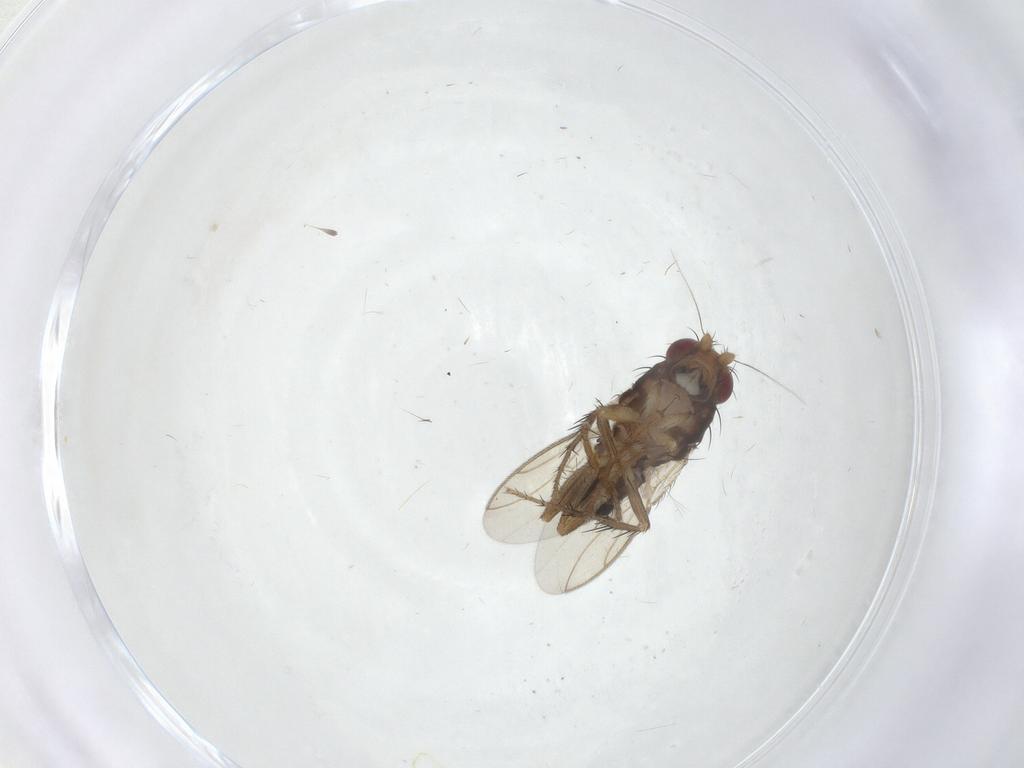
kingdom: Animalia
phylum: Arthropoda
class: Insecta
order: Diptera
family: Sphaeroceridae
